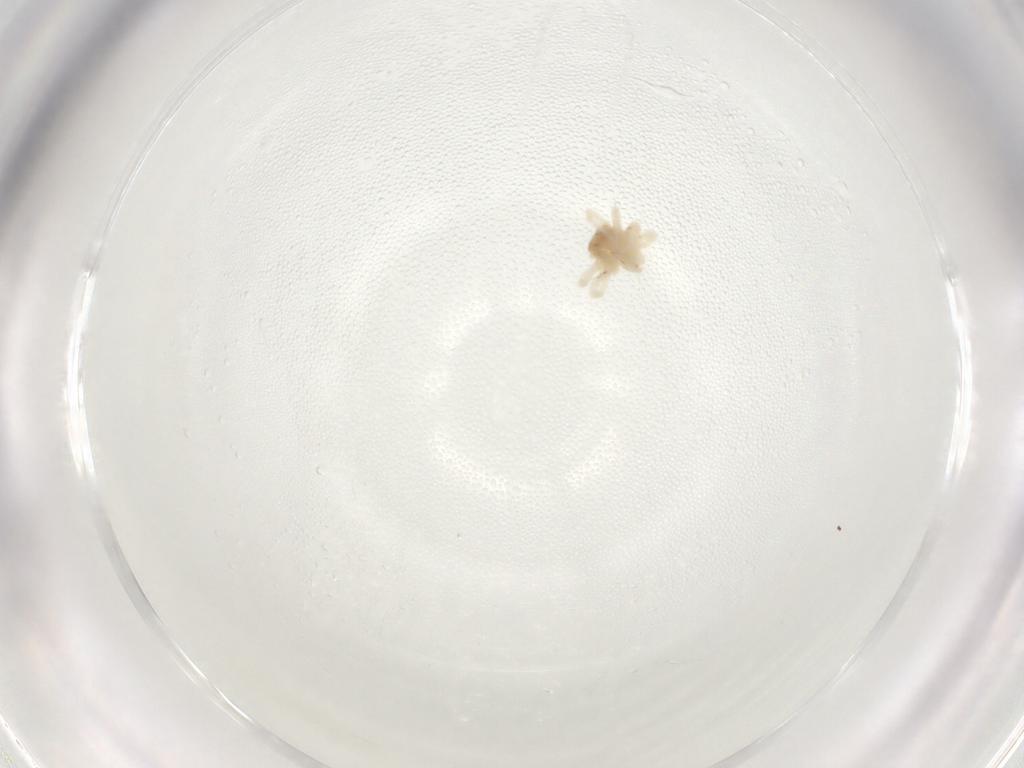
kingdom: Animalia
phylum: Arthropoda
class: Arachnida
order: Trombidiformes
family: Anystidae
